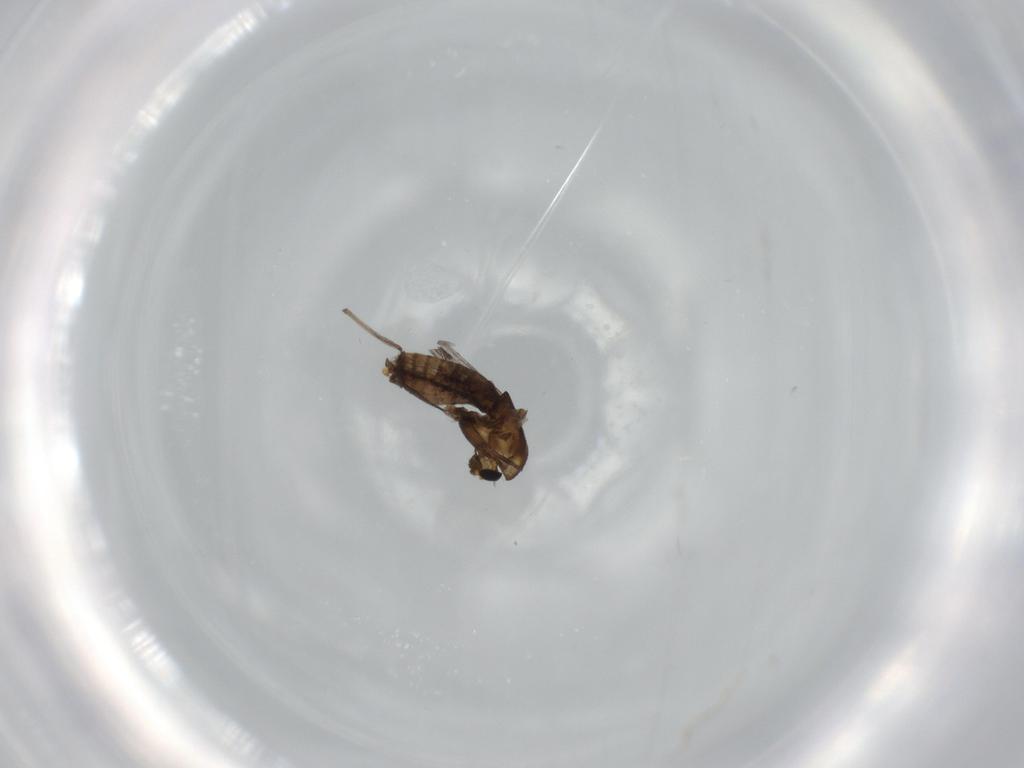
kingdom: Animalia
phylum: Arthropoda
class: Insecta
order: Diptera
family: Chironomidae
